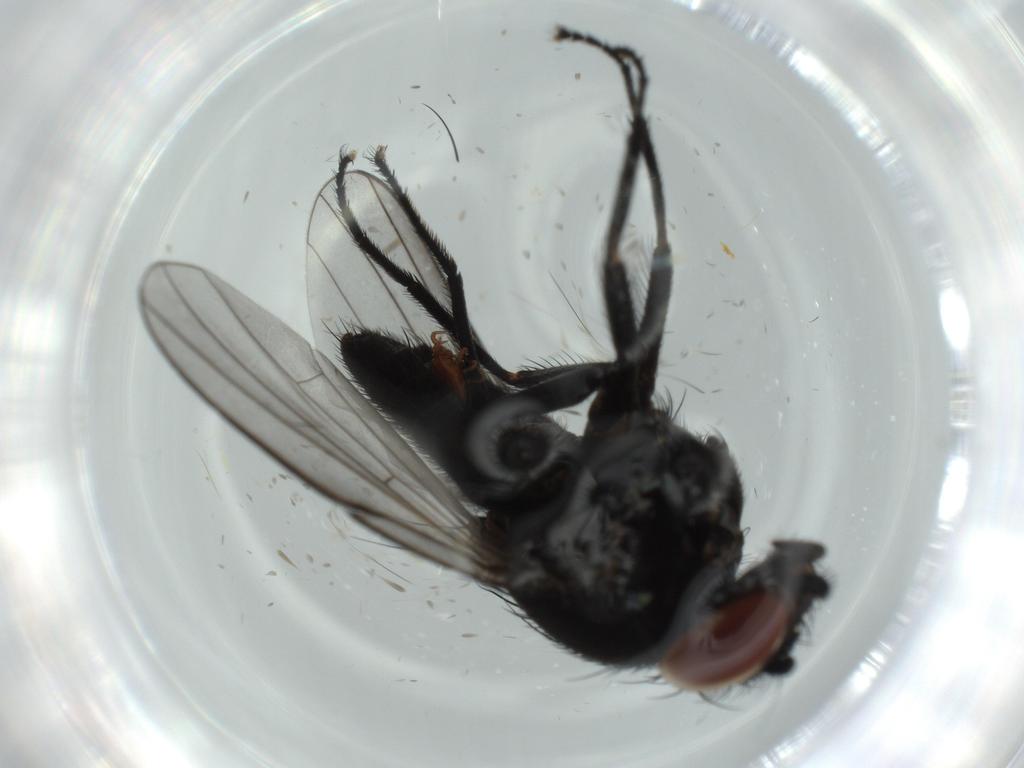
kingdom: Animalia
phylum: Arthropoda
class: Insecta
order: Diptera
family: Milichiidae
